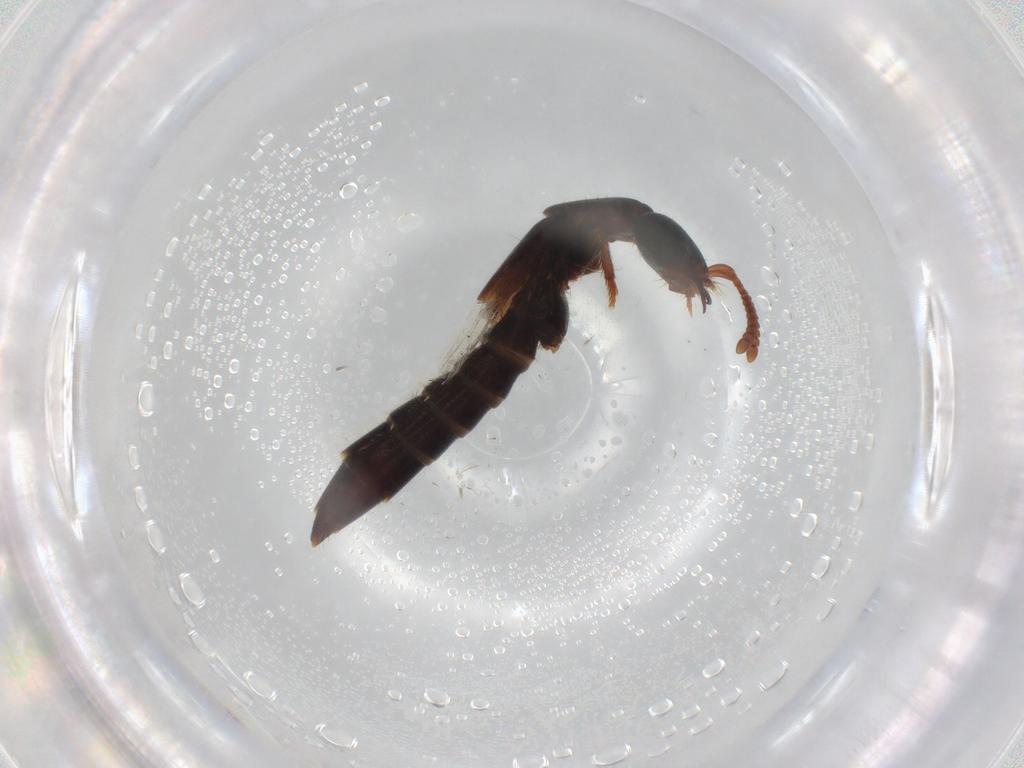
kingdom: Animalia
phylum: Arthropoda
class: Insecta
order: Coleoptera
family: Staphylinidae
